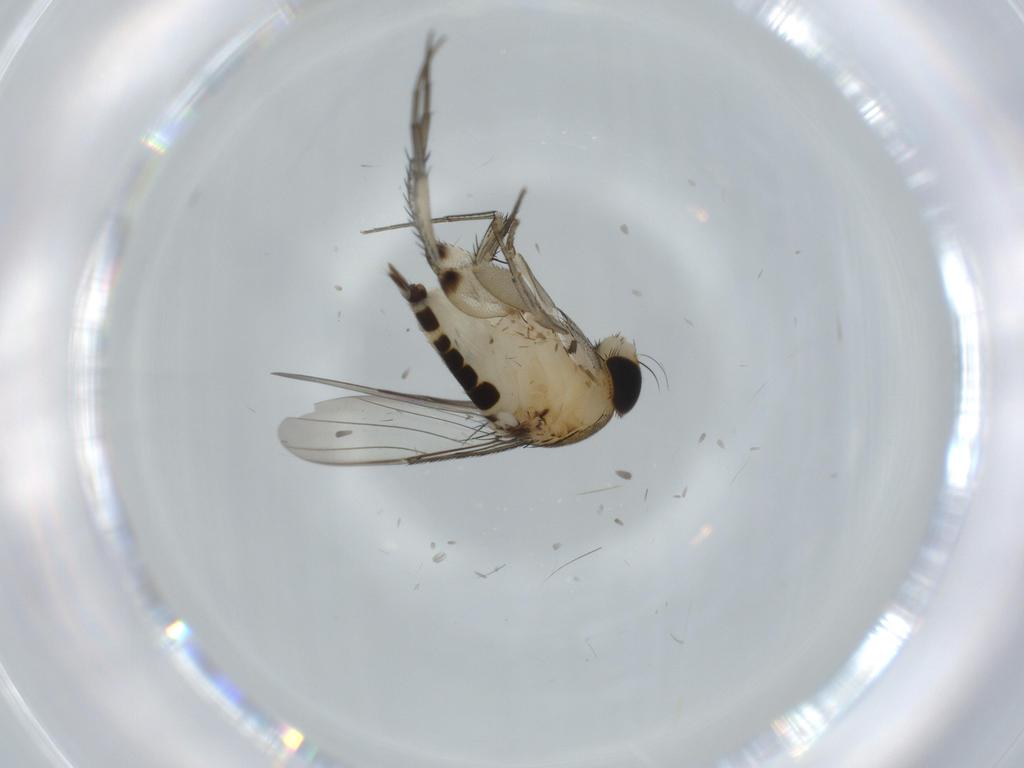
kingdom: Animalia
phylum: Arthropoda
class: Insecta
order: Diptera
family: Phoridae
